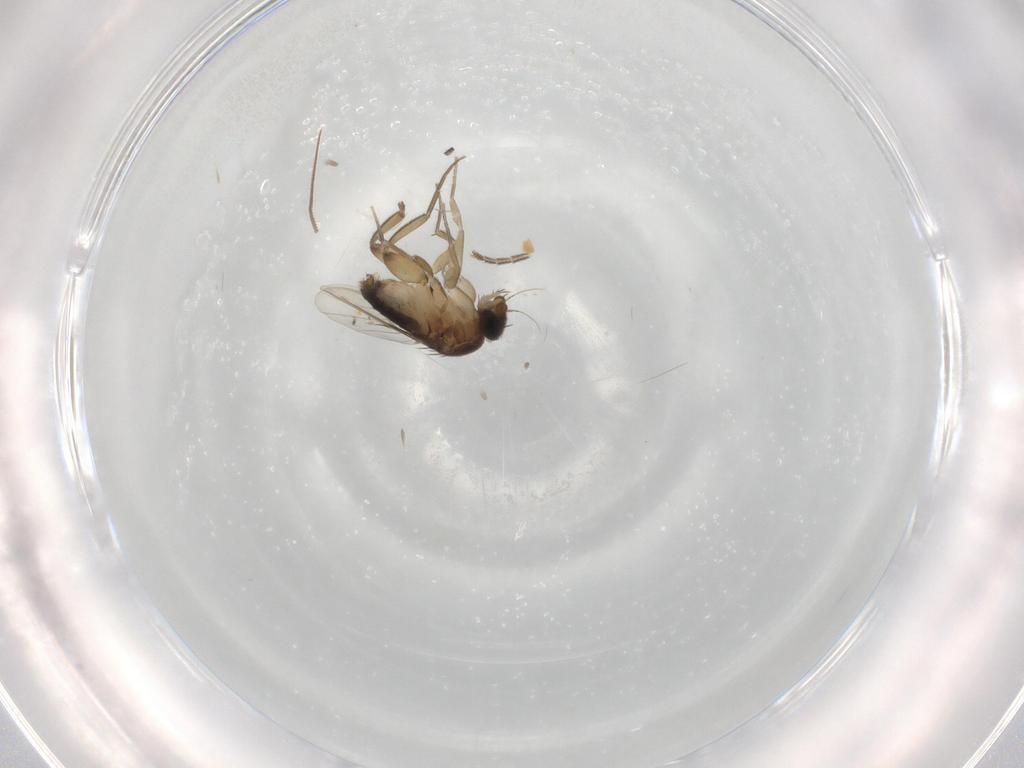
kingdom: Animalia
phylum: Arthropoda
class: Insecta
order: Diptera
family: Phoridae
